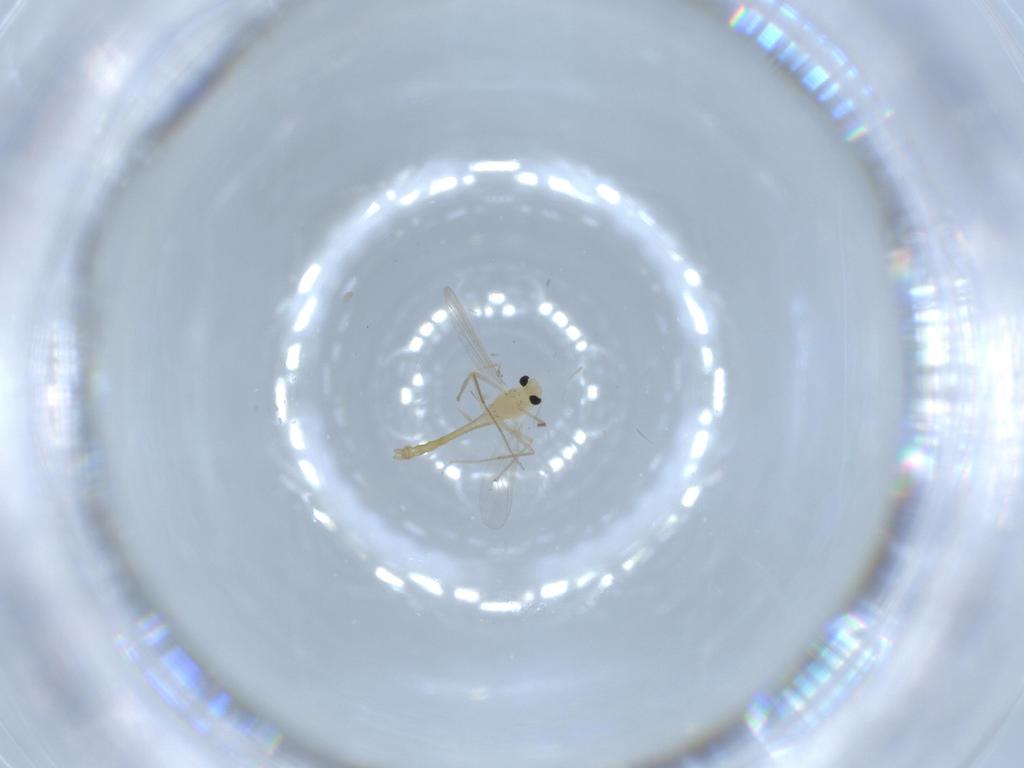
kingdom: Animalia
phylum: Arthropoda
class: Insecta
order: Diptera
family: Chironomidae
